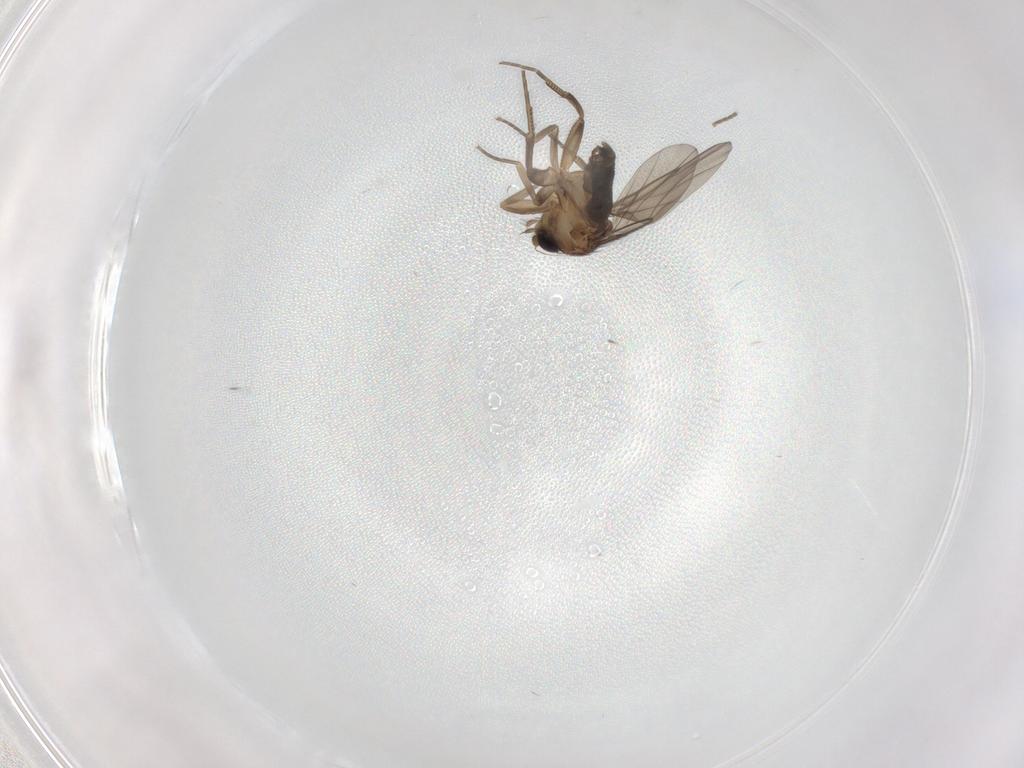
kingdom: Animalia
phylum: Arthropoda
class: Insecta
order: Diptera
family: Phoridae
